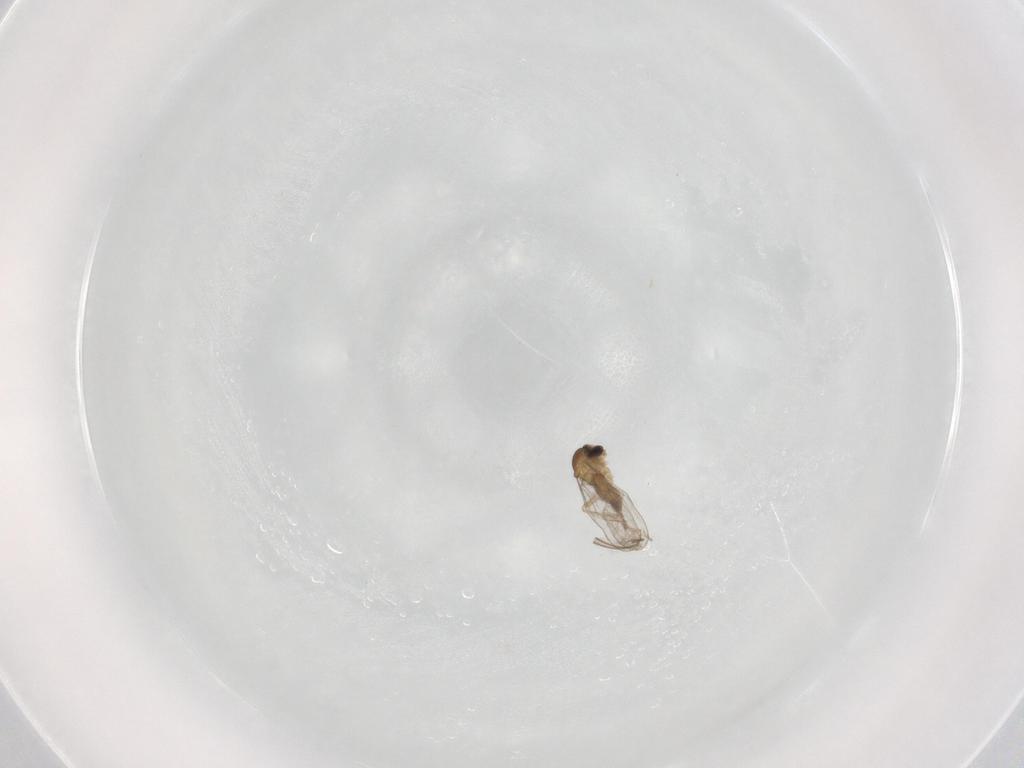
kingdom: Animalia
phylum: Arthropoda
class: Insecta
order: Diptera
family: Cecidomyiidae
